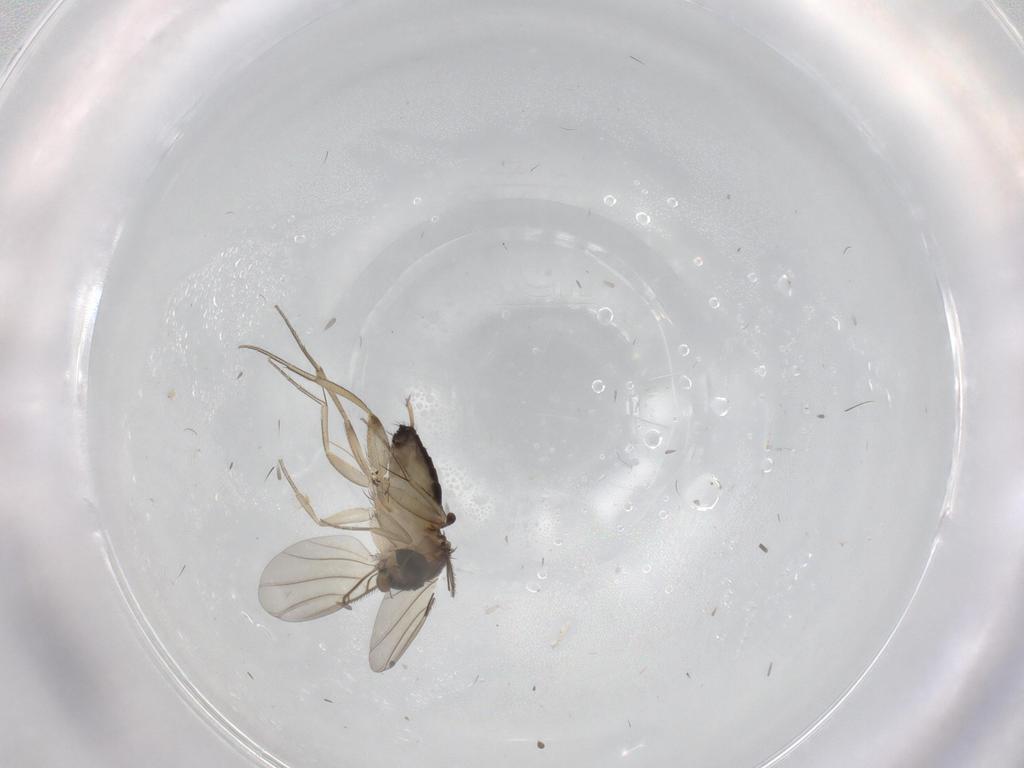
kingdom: Animalia
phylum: Arthropoda
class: Insecta
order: Diptera
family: Phoridae
